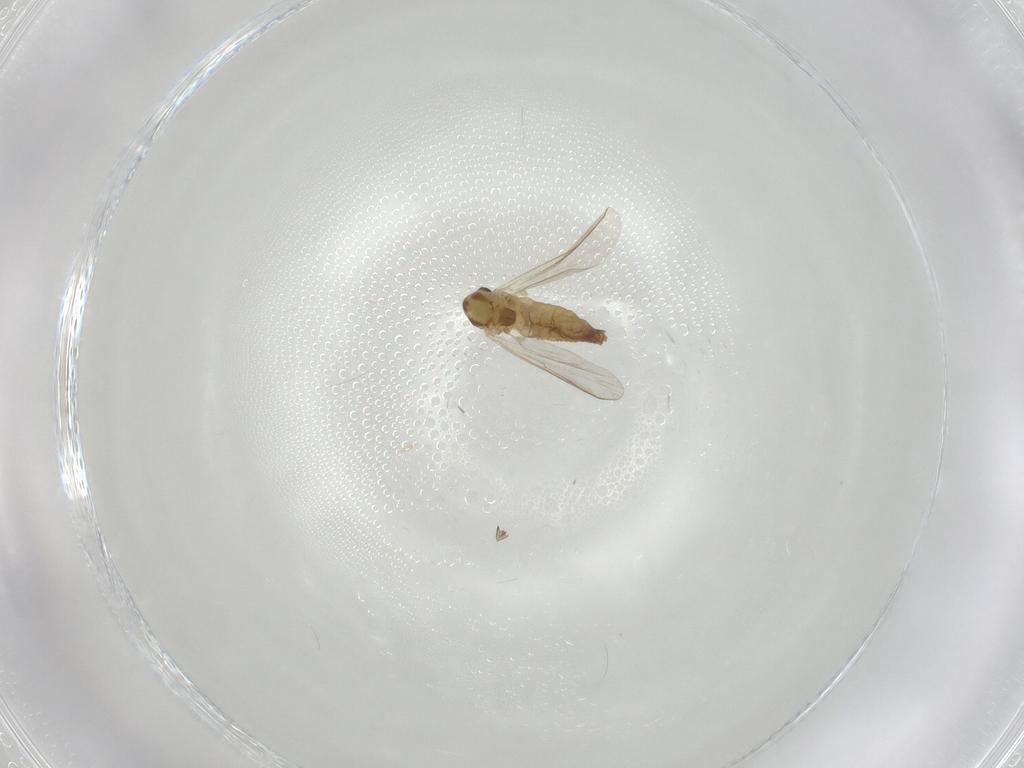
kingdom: Animalia
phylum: Arthropoda
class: Insecta
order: Diptera
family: Chironomidae
